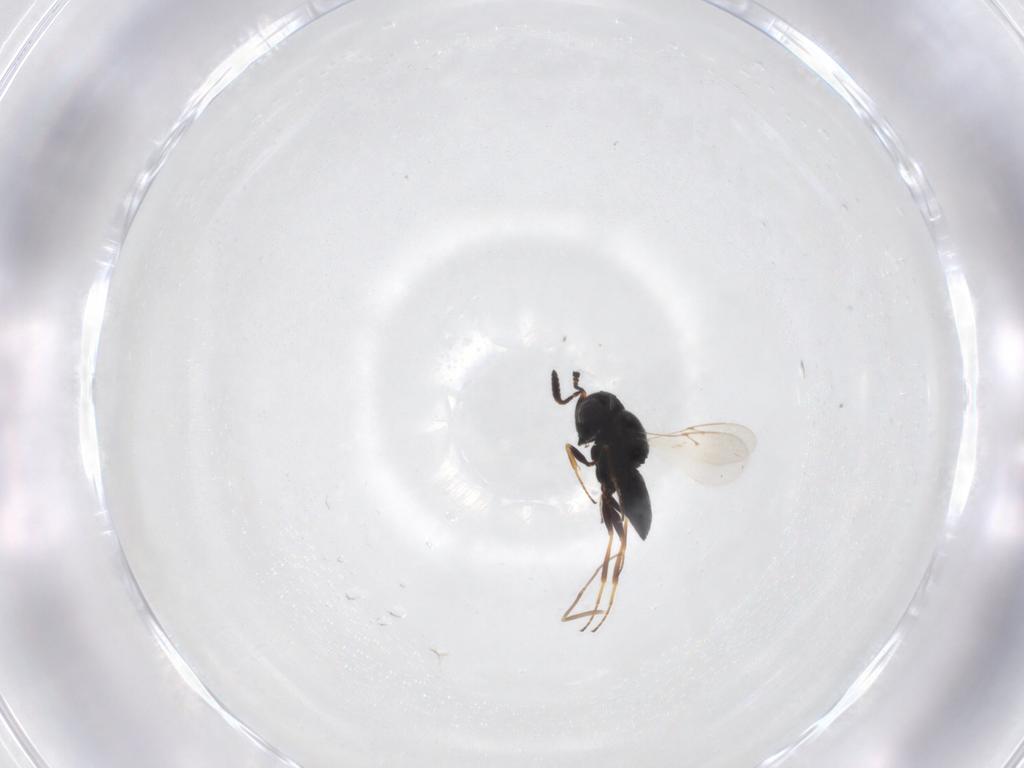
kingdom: Animalia
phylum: Arthropoda
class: Insecta
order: Hymenoptera
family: Scelionidae
